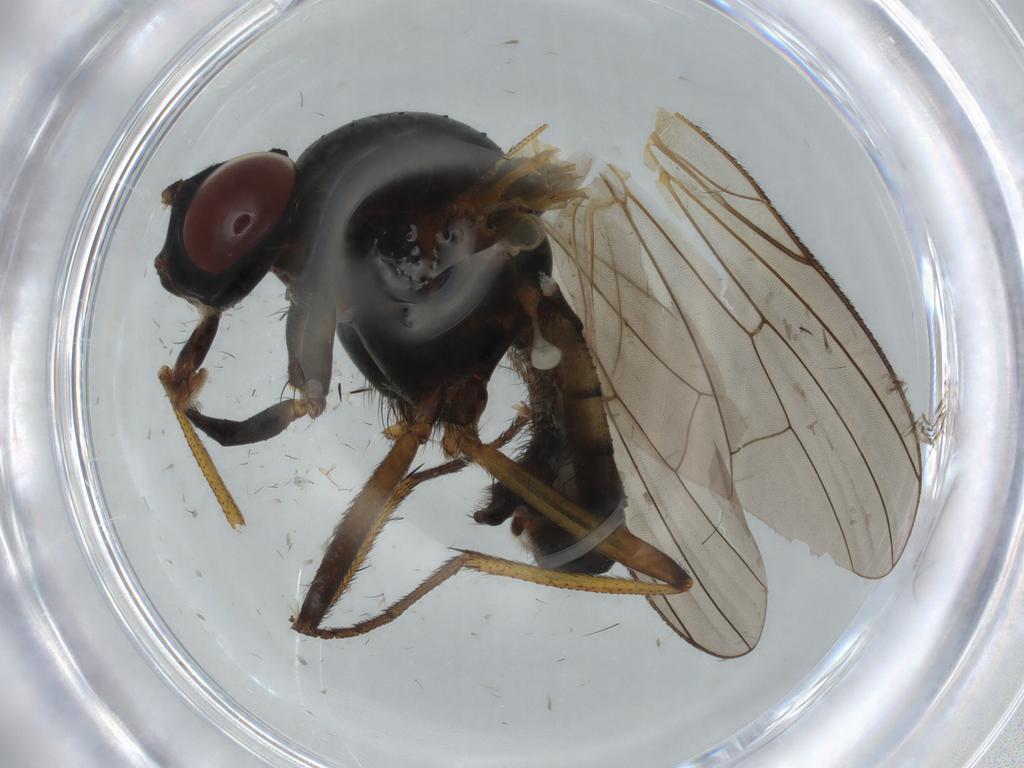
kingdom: Animalia
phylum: Arthropoda
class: Insecta
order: Diptera
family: Anthomyiidae
